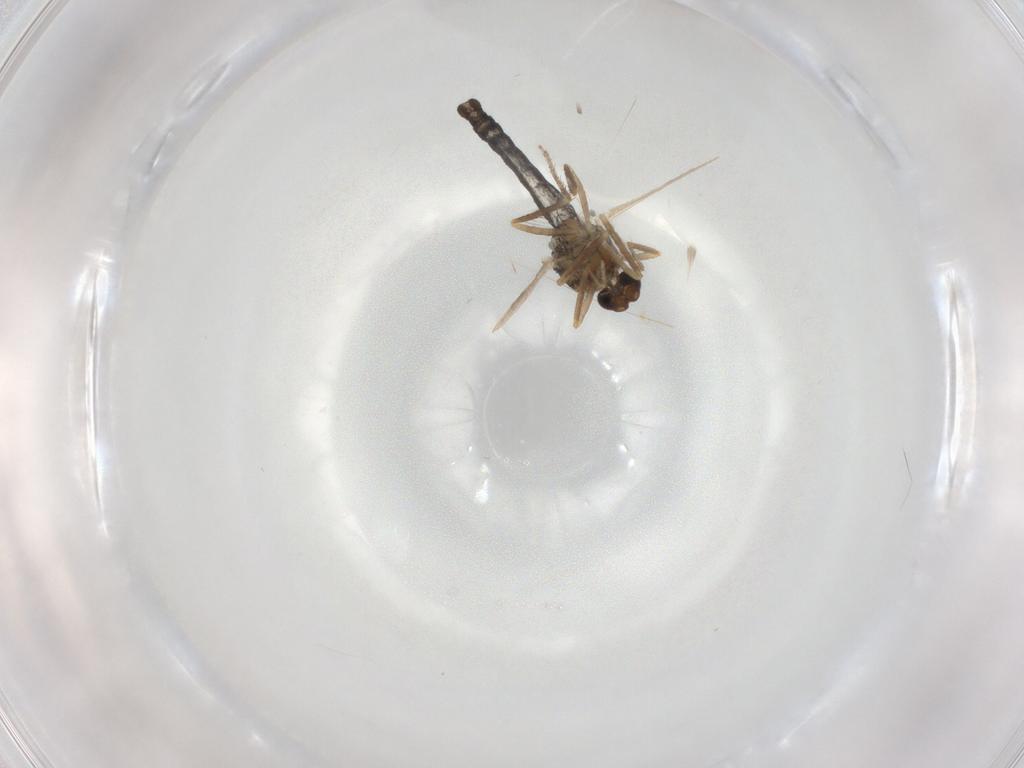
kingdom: Animalia
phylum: Arthropoda
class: Insecta
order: Diptera
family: Ceratopogonidae
